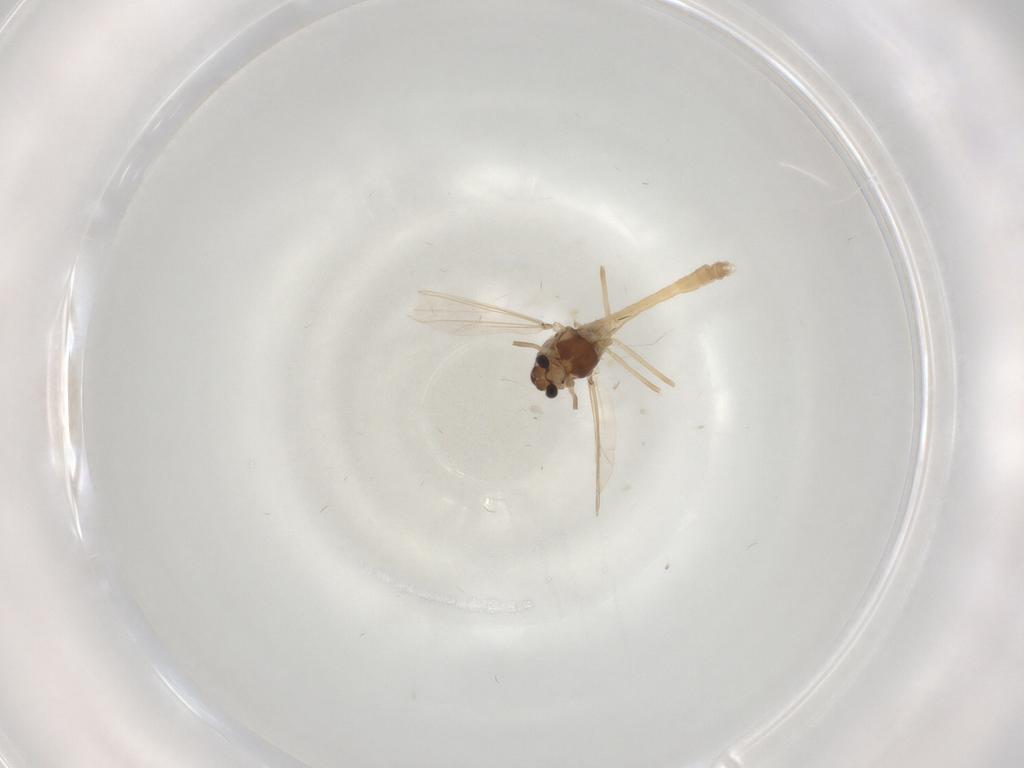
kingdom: Animalia
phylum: Arthropoda
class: Insecta
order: Diptera
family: Chironomidae
